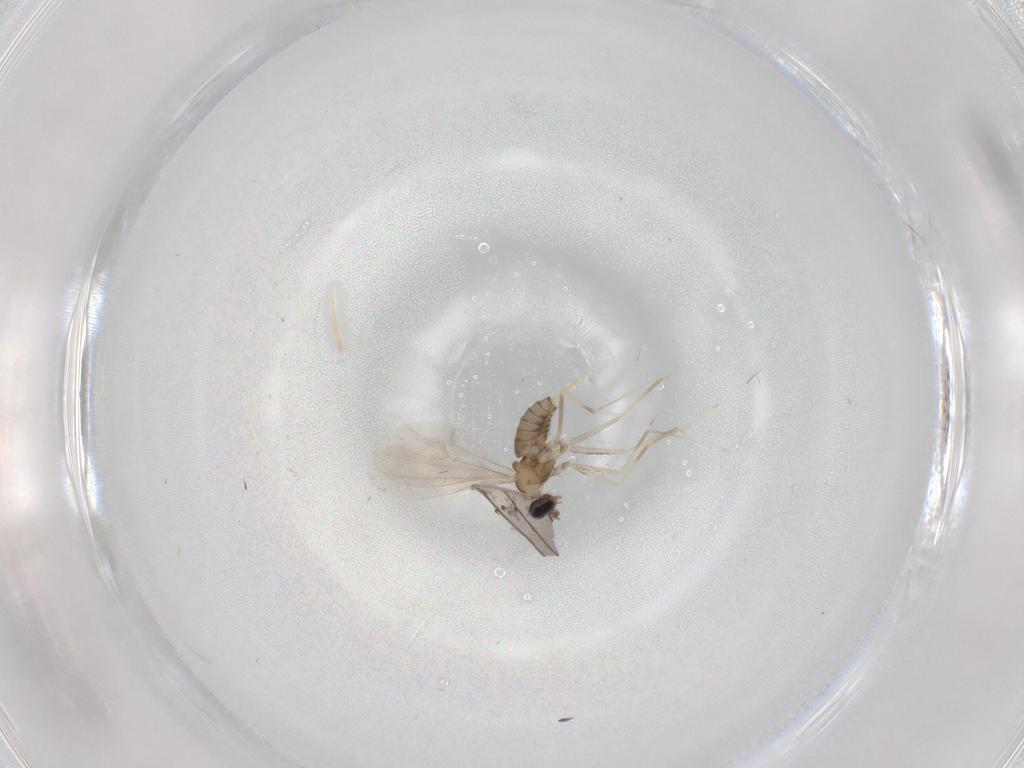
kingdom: Animalia
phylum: Arthropoda
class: Insecta
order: Diptera
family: Cecidomyiidae
